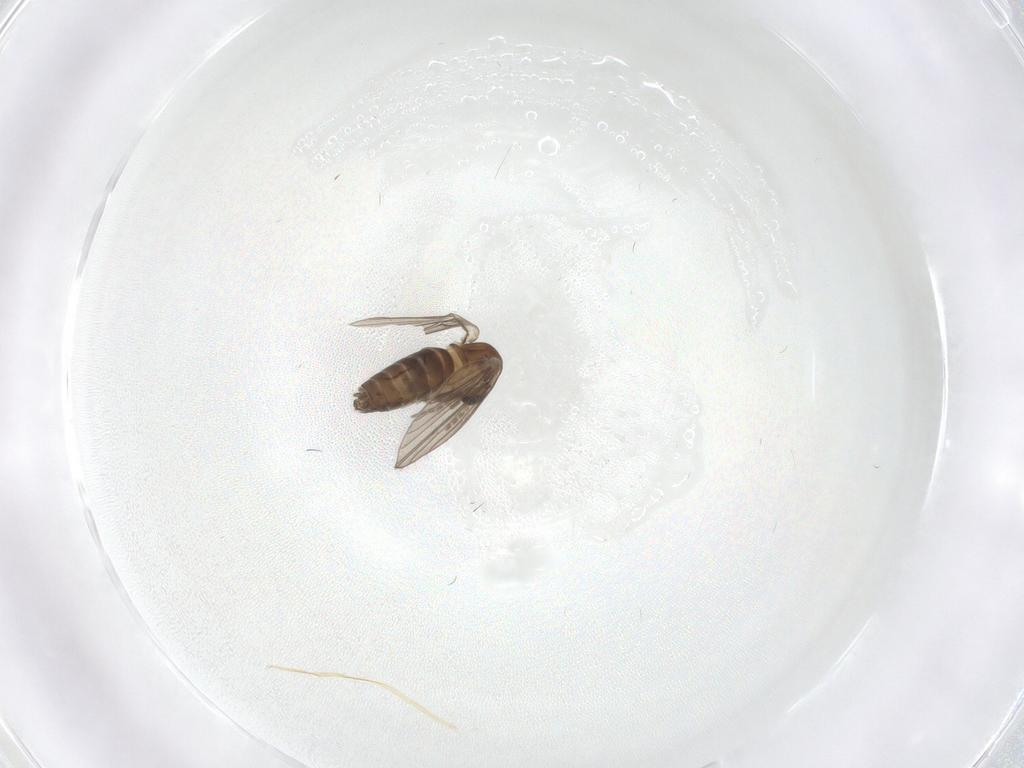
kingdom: Animalia
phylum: Arthropoda
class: Insecta
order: Diptera
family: Psychodidae
